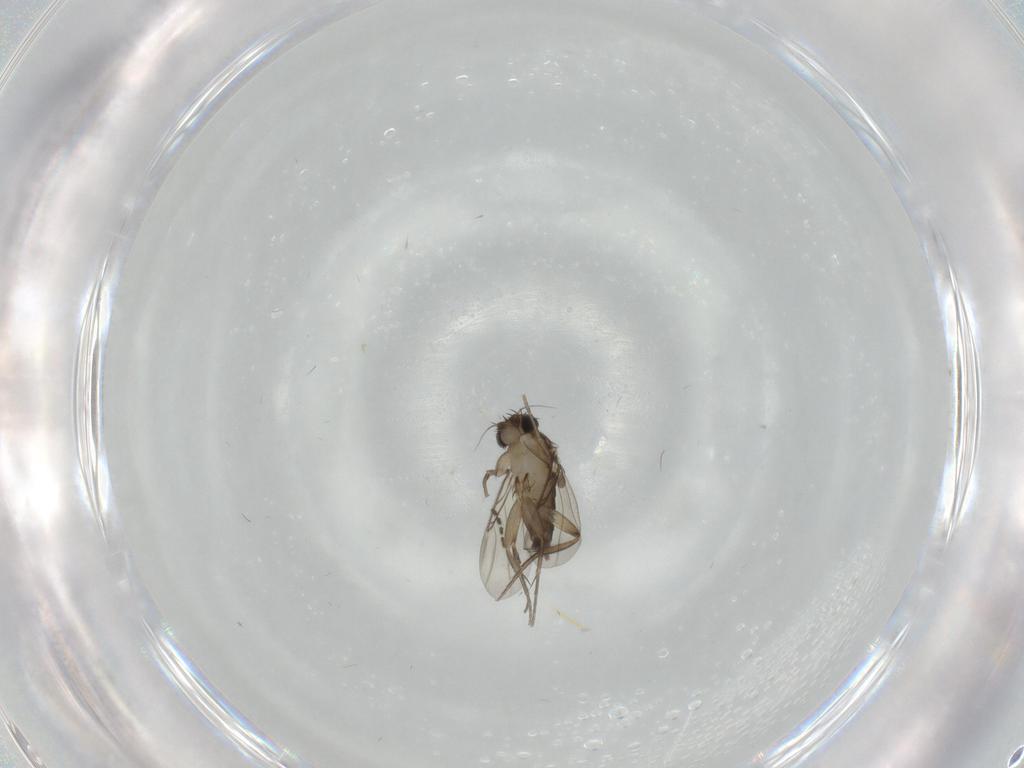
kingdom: Animalia
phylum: Arthropoda
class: Insecta
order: Diptera
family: Phoridae
